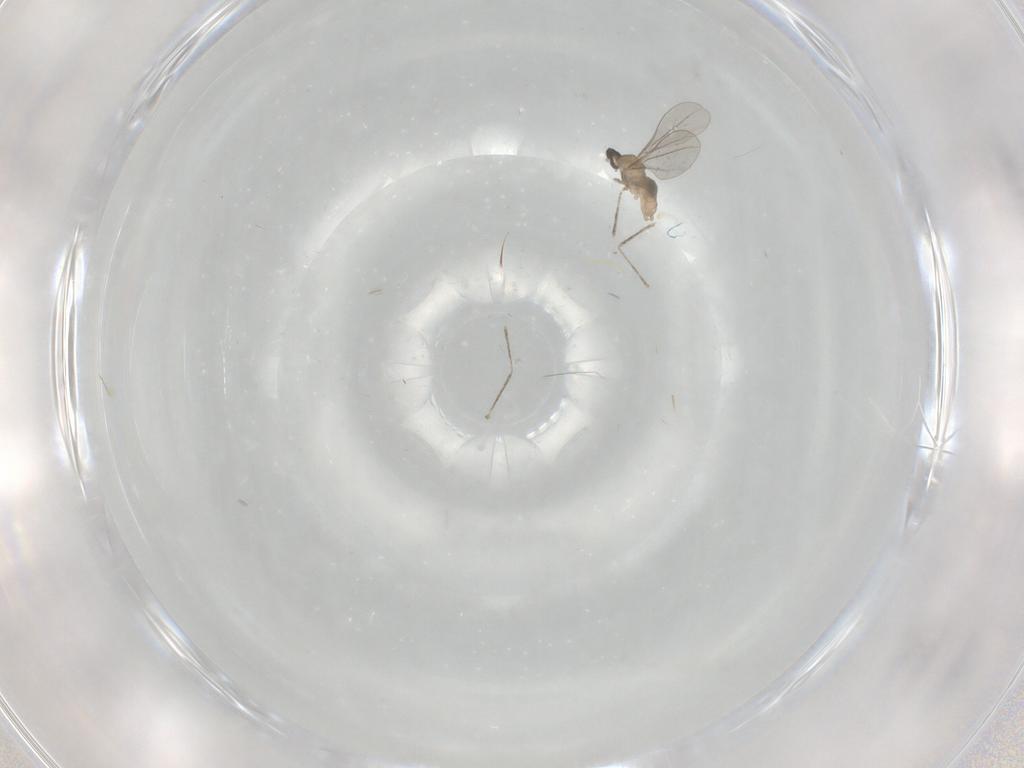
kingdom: Animalia
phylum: Arthropoda
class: Insecta
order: Diptera
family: Cecidomyiidae
